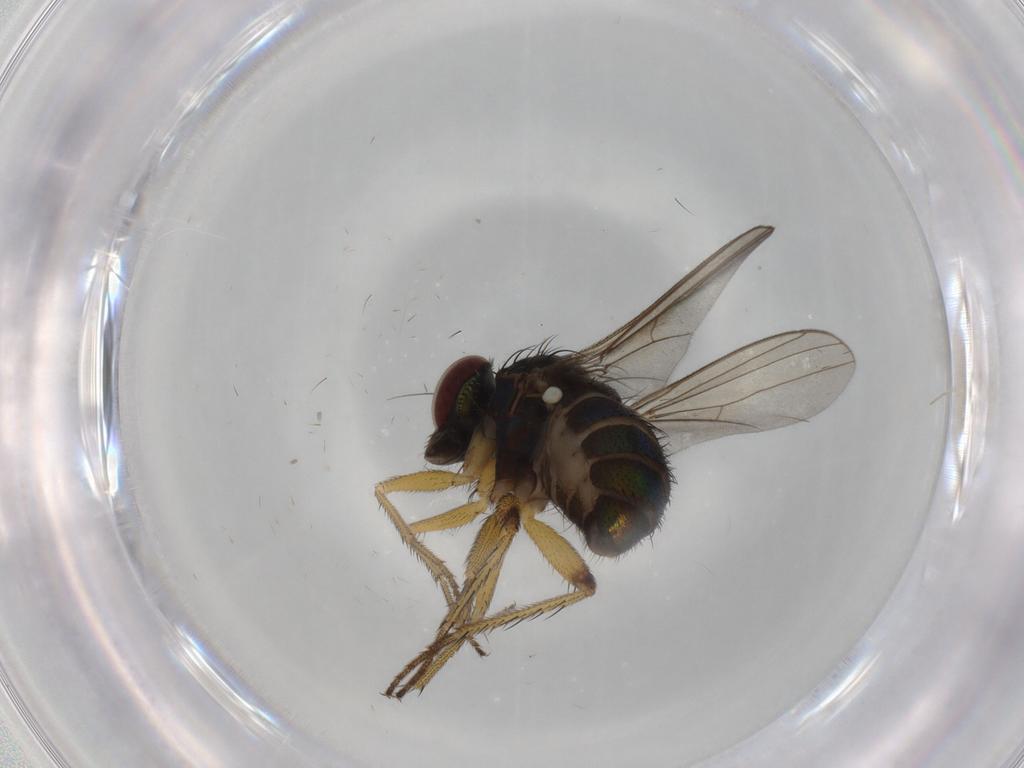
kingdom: Animalia
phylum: Arthropoda
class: Insecta
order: Diptera
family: Dolichopodidae
